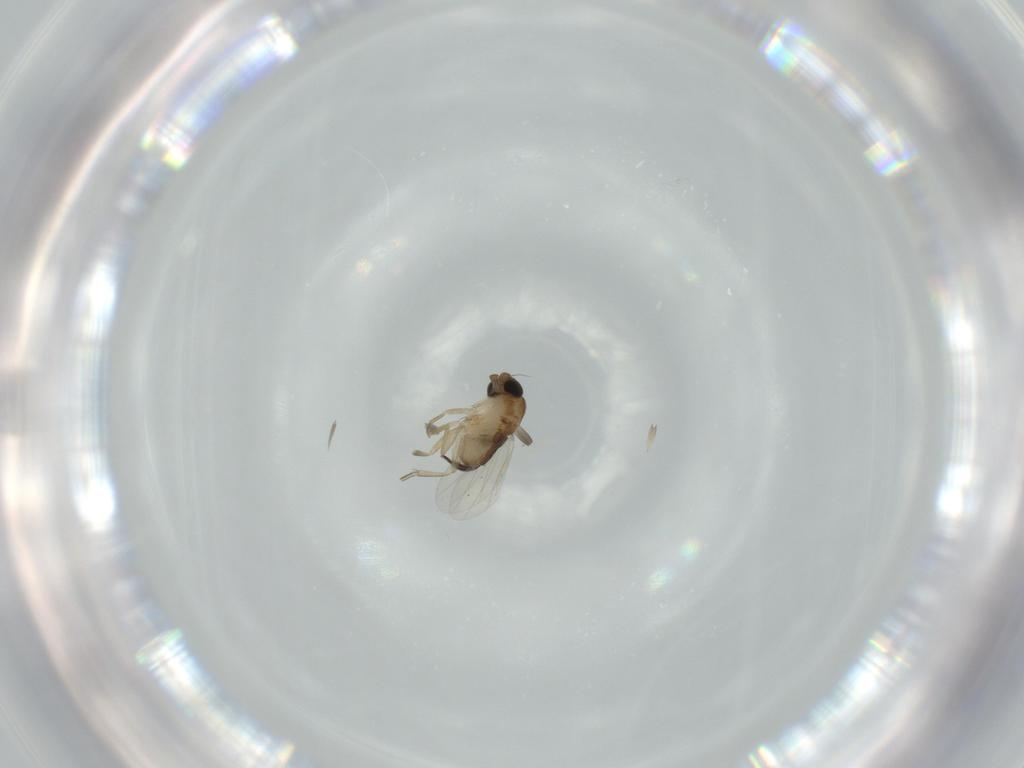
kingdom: Animalia
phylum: Arthropoda
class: Insecta
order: Diptera
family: Phoridae
